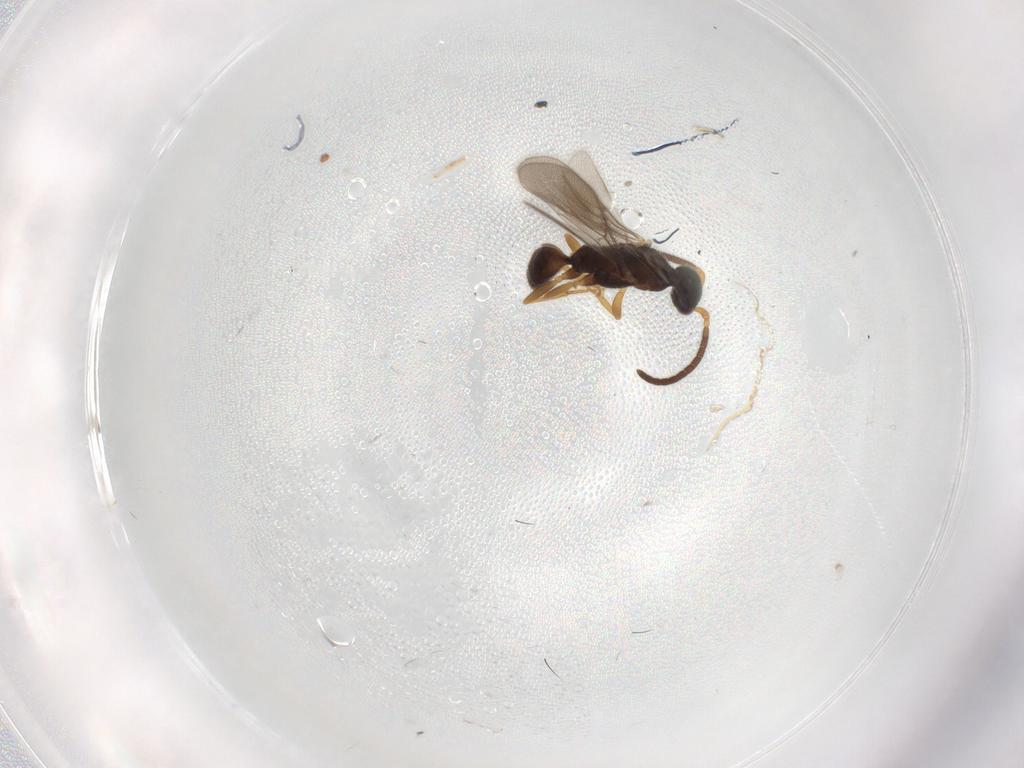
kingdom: Animalia
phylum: Arthropoda
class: Insecta
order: Hymenoptera
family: Bethylidae
